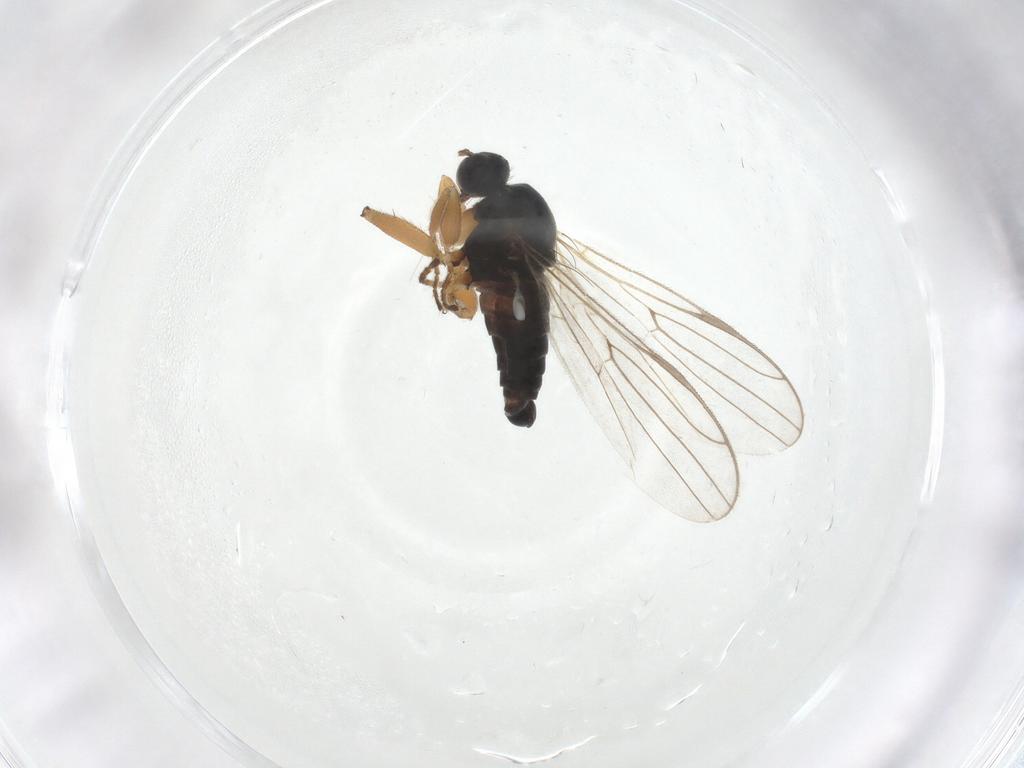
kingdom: Animalia
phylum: Arthropoda
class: Insecta
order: Diptera
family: Hybotidae
